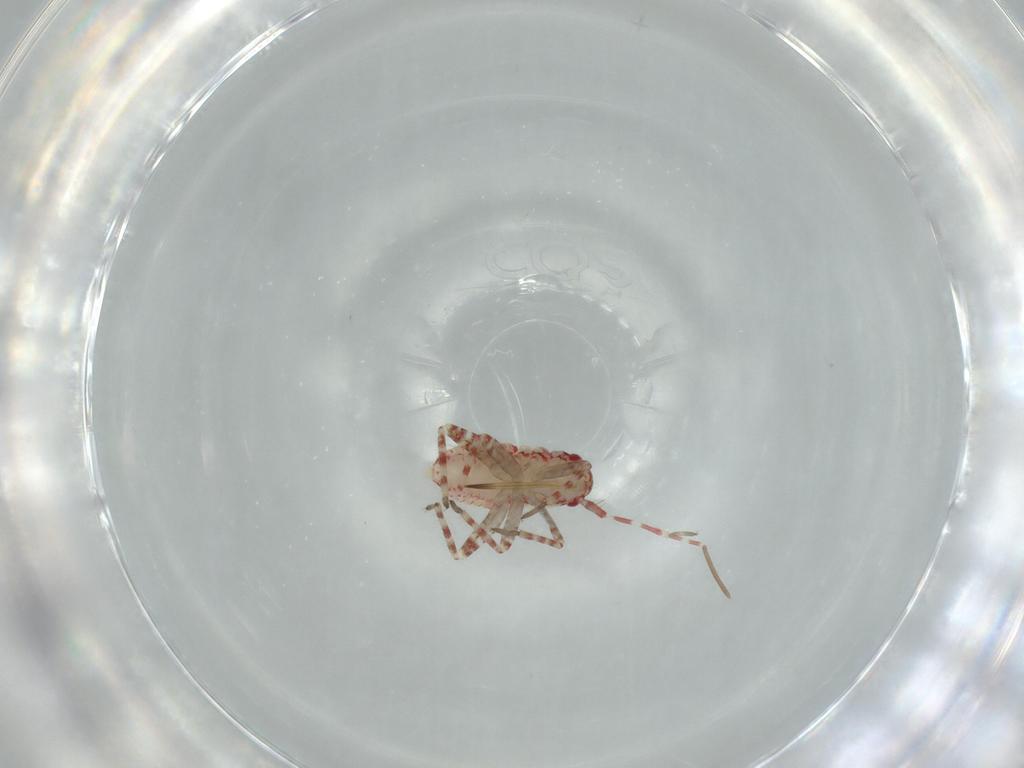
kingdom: Animalia
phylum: Arthropoda
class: Insecta
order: Hemiptera
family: Miridae
